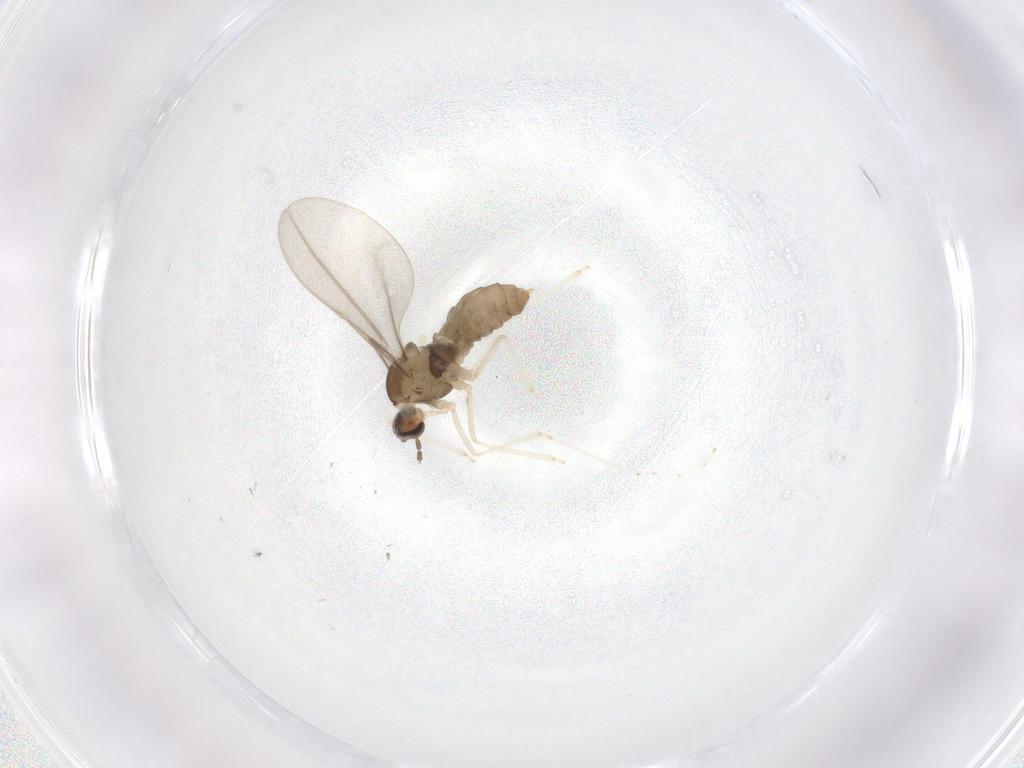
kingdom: Animalia
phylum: Arthropoda
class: Insecta
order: Diptera
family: Cecidomyiidae
